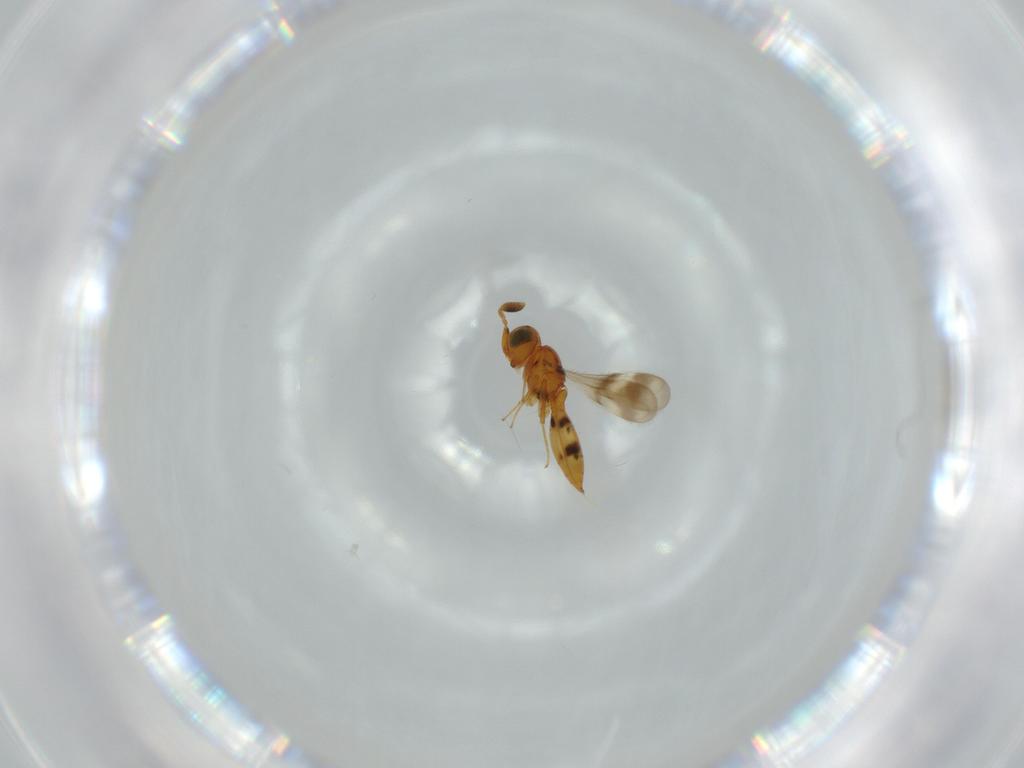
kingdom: Animalia
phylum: Arthropoda
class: Insecta
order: Hymenoptera
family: Scelionidae
